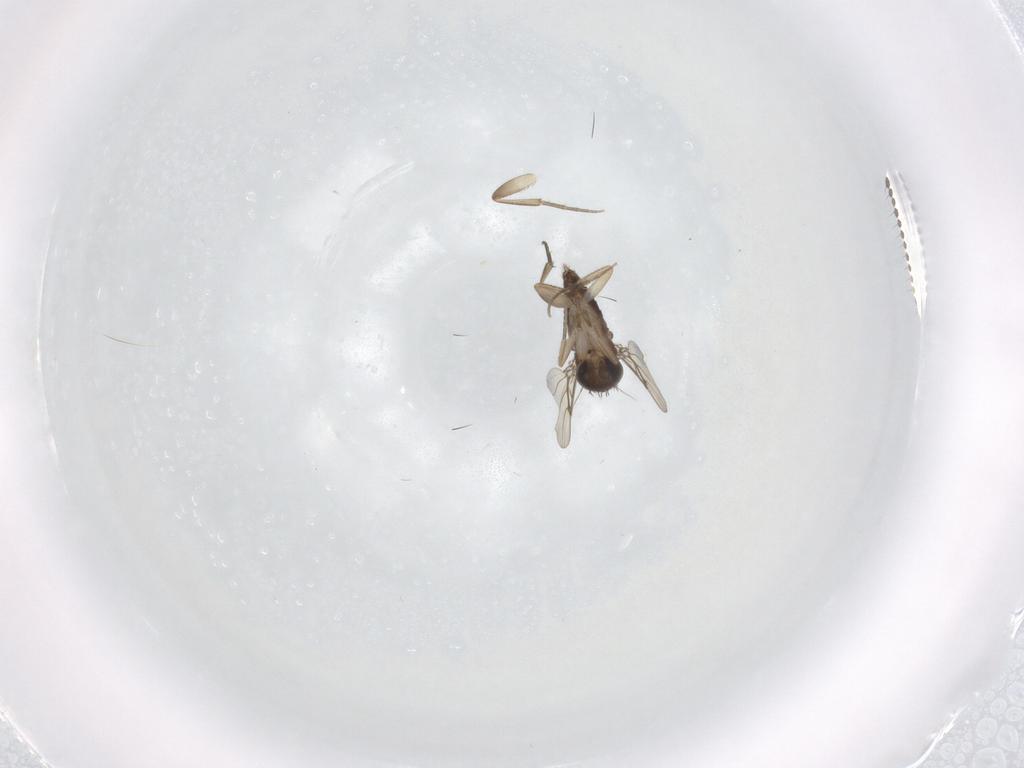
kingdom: Animalia
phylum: Arthropoda
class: Insecta
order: Diptera
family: Phoridae
